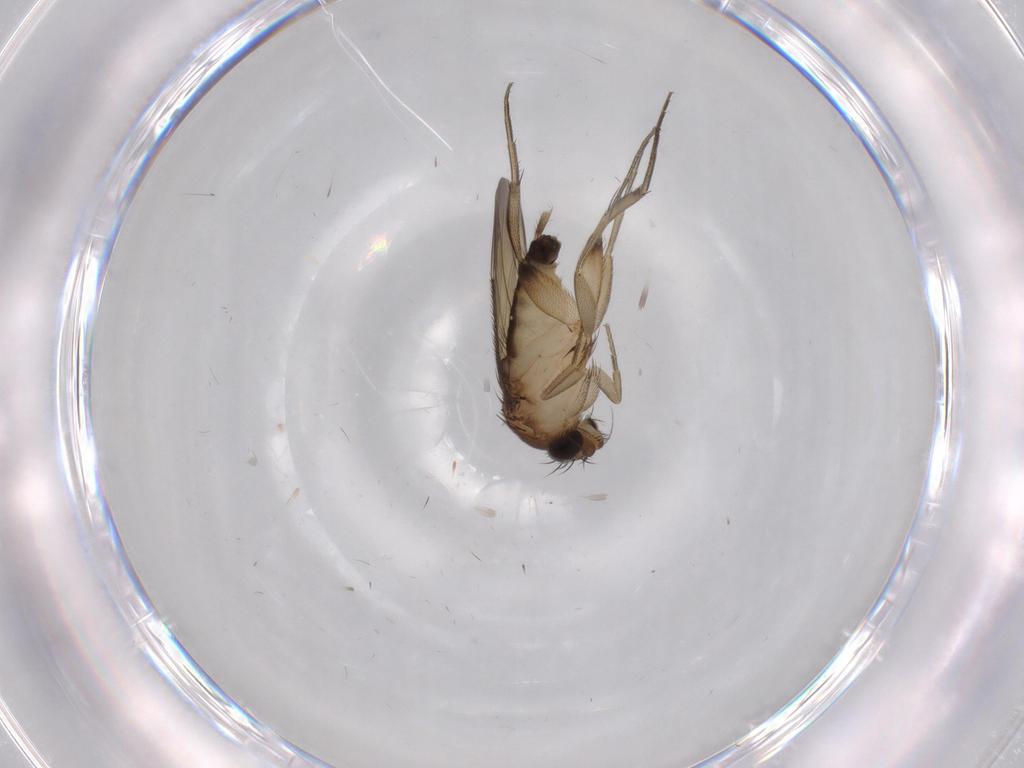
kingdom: Animalia
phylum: Arthropoda
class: Insecta
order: Diptera
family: Phoridae
